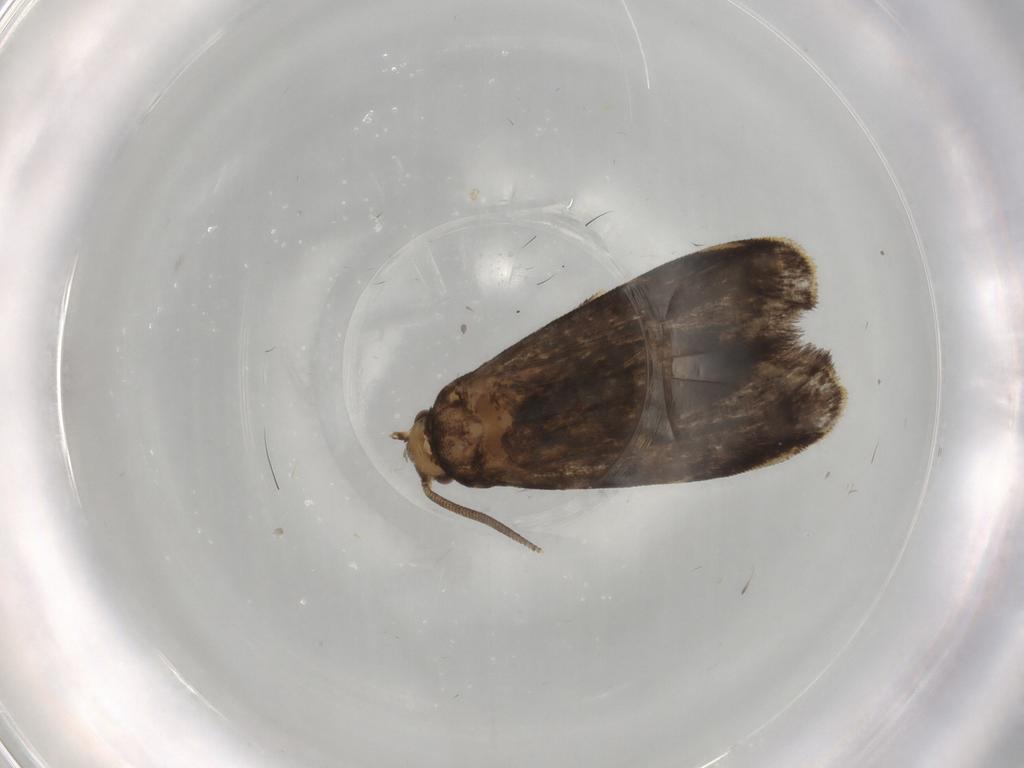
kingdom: Animalia
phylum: Arthropoda
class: Insecta
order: Lepidoptera
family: Dryadaulidae
